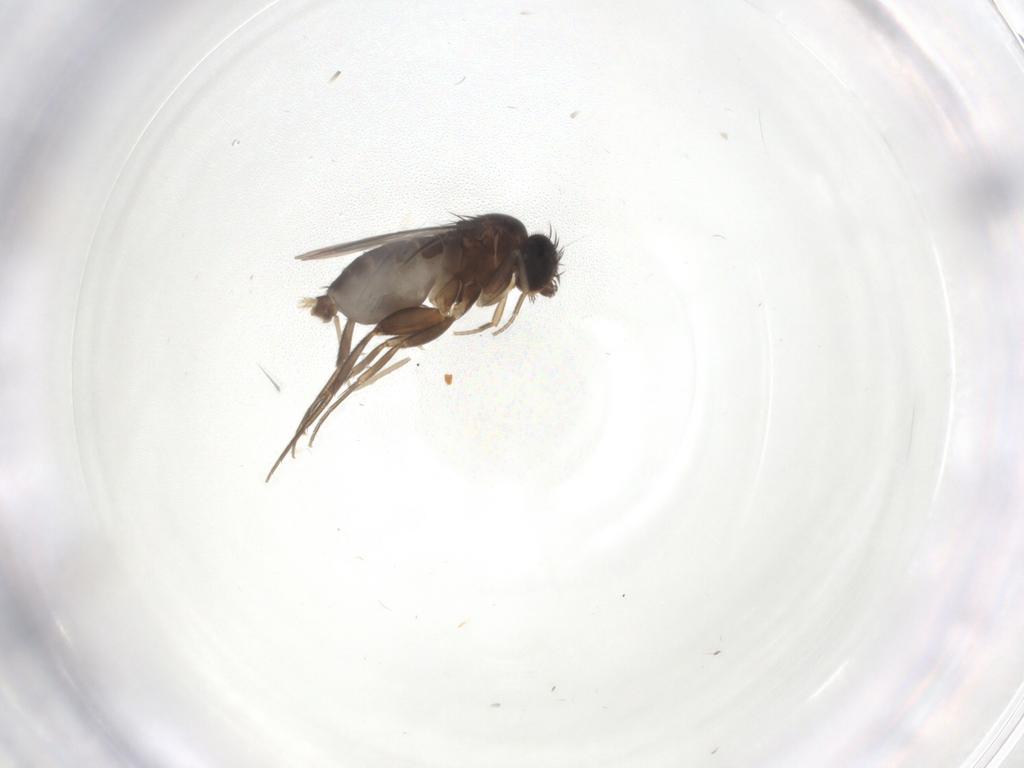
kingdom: Animalia
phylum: Arthropoda
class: Insecta
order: Diptera
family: Phoridae
